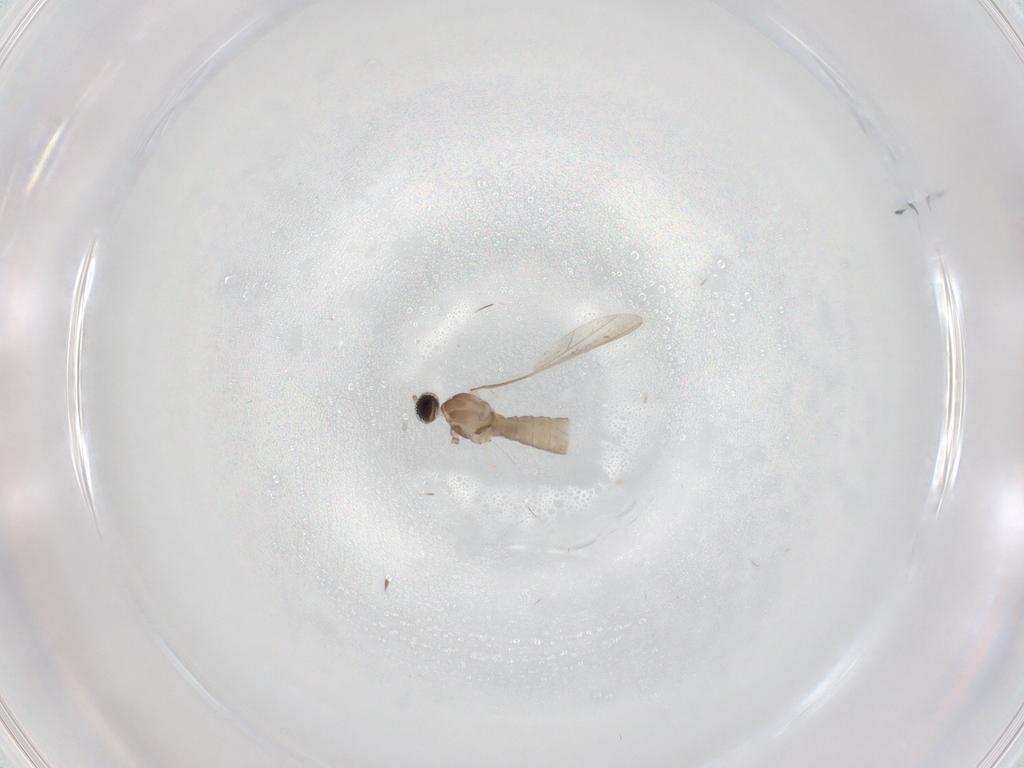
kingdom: Animalia
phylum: Arthropoda
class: Insecta
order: Diptera
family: Cecidomyiidae
